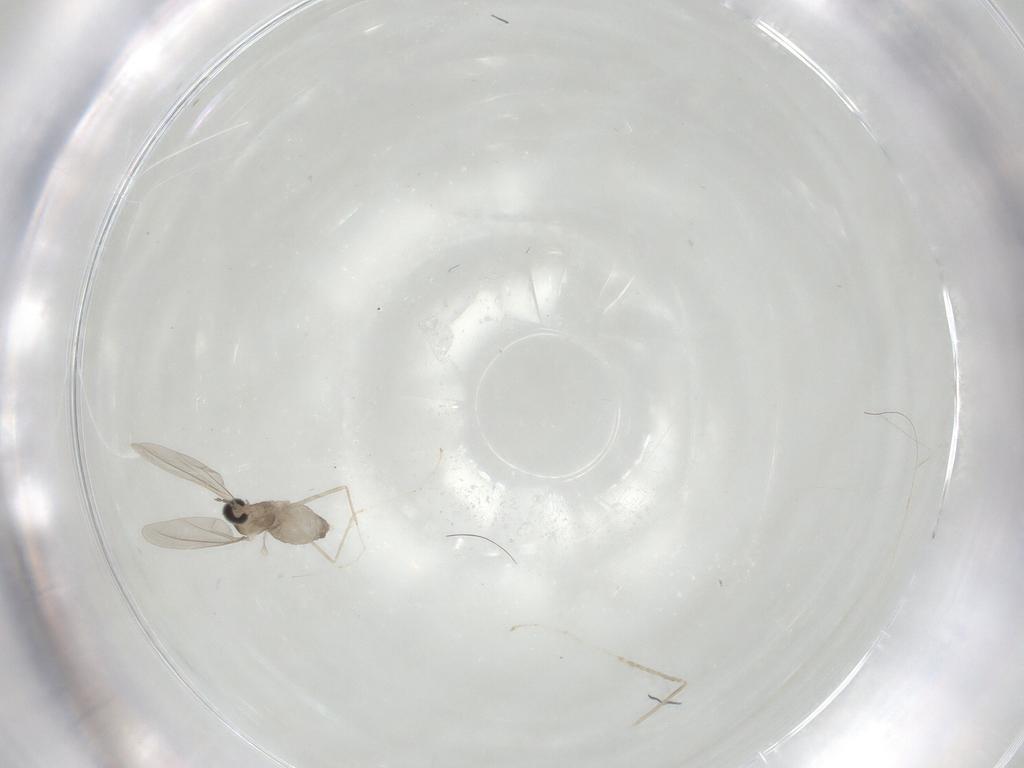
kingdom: Animalia
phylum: Arthropoda
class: Insecta
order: Diptera
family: Cecidomyiidae
